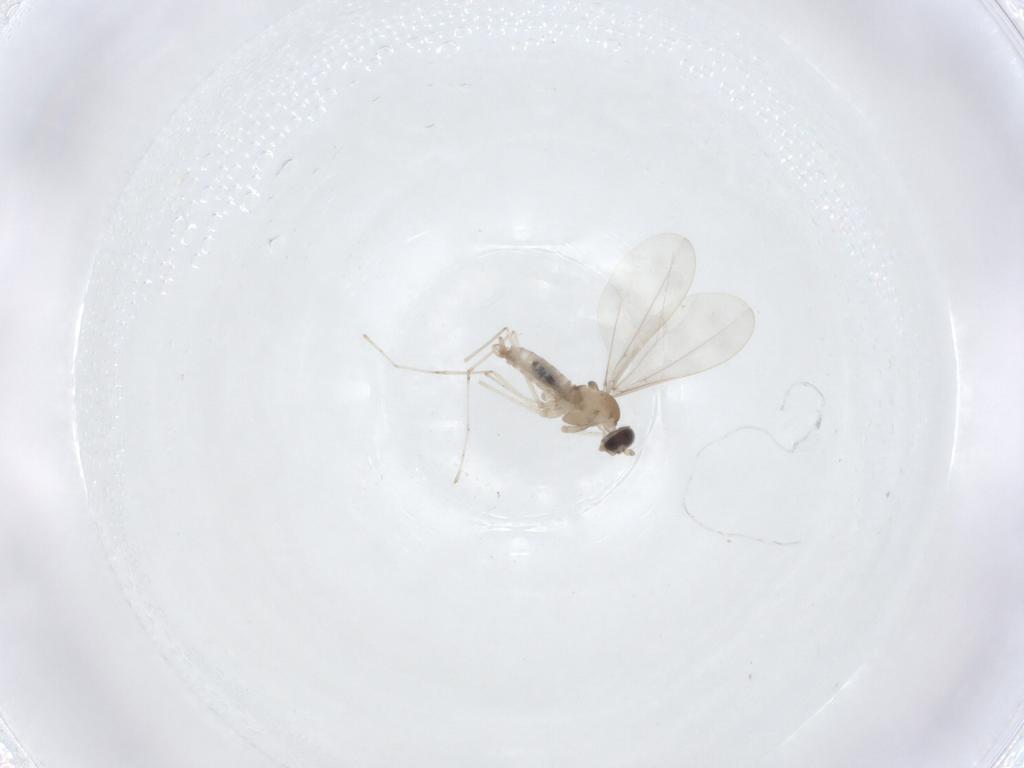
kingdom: Animalia
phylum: Arthropoda
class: Insecta
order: Diptera
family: Cecidomyiidae
